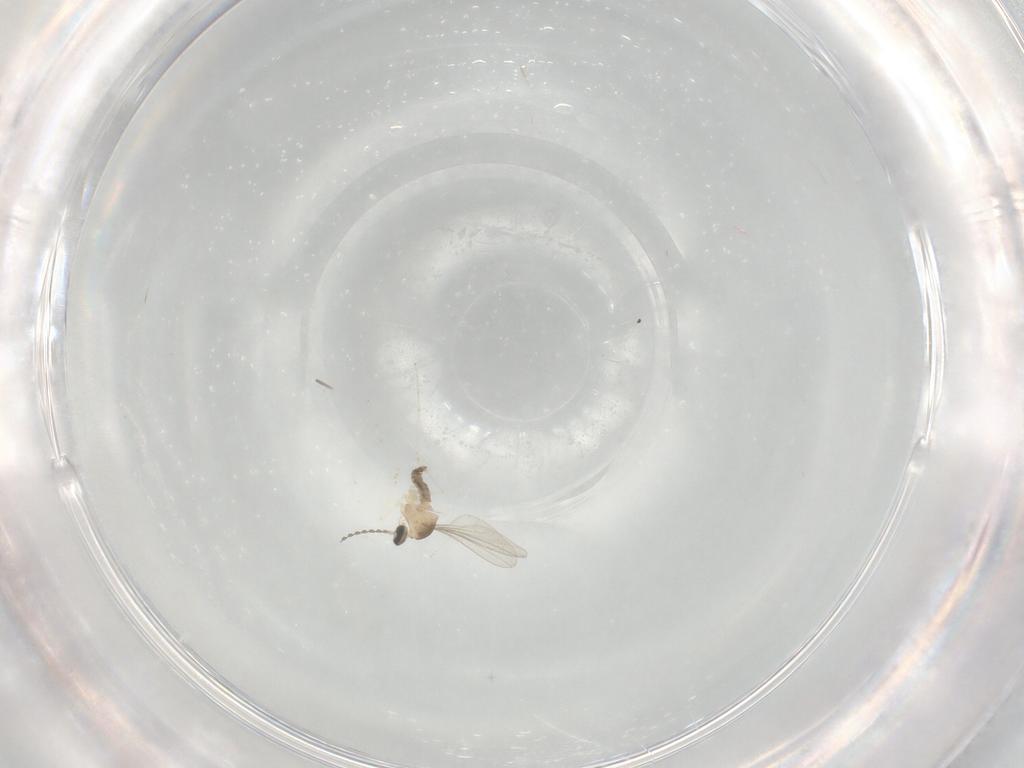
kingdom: Animalia
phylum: Arthropoda
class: Insecta
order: Diptera
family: Cecidomyiidae
